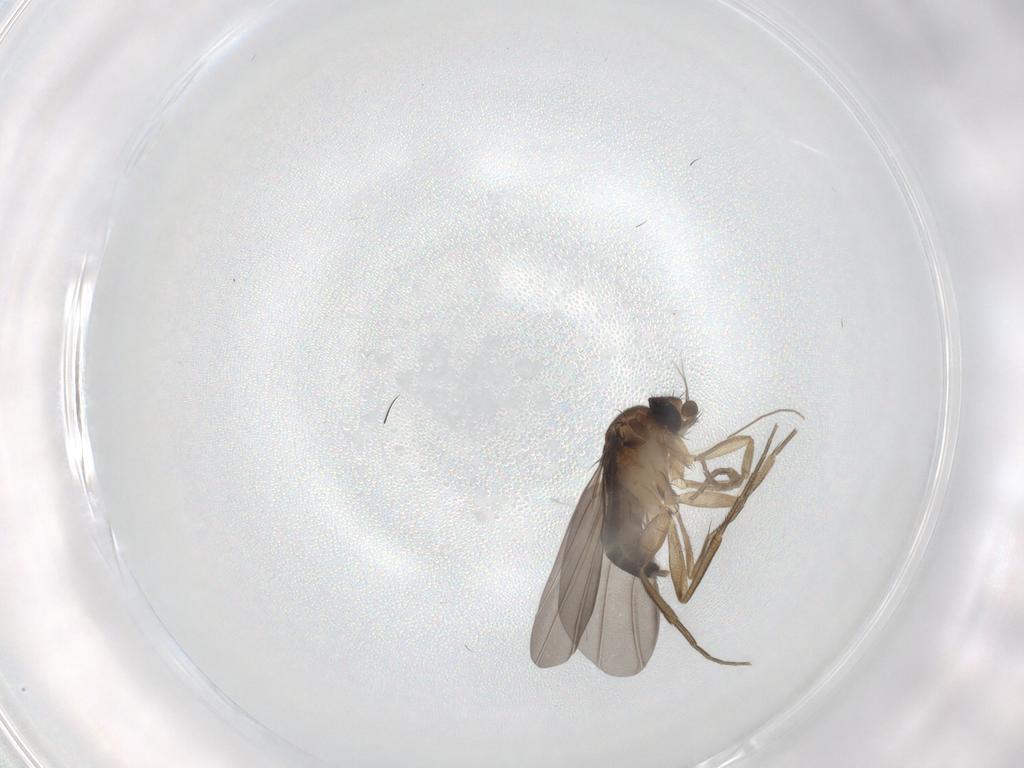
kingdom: Animalia
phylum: Arthropoda
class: Insecta
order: Diptera
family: Phoridae
